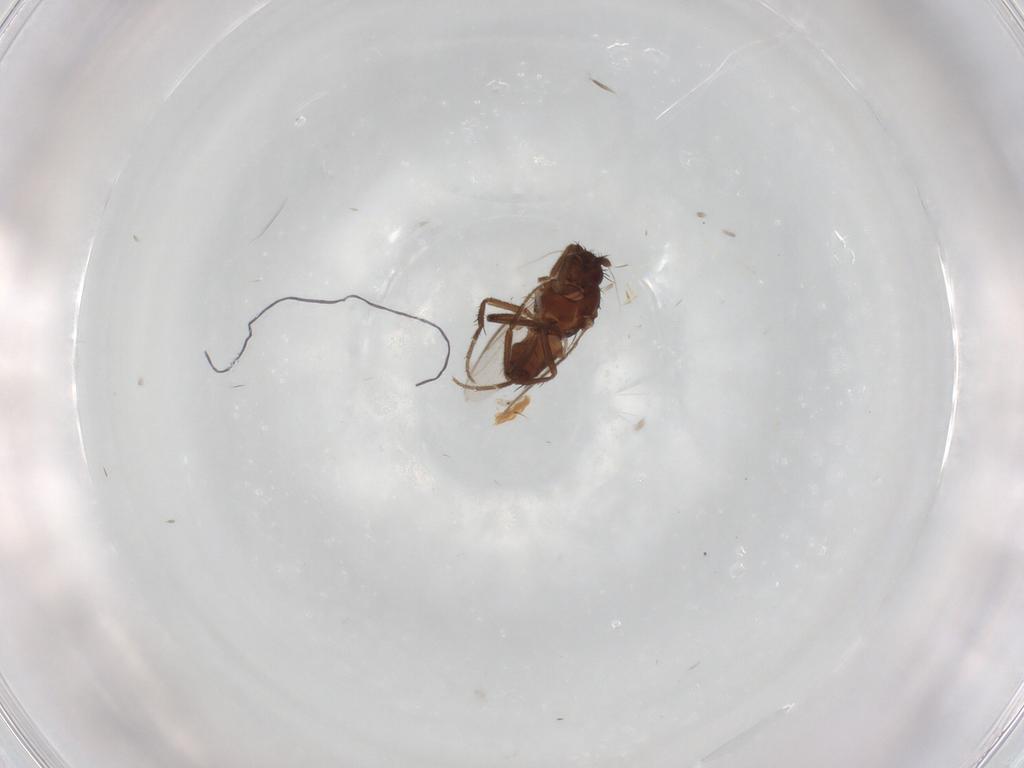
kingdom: Animalia
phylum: Arthropoda
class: Insecta
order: Diptera
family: Sphaeroceridae
